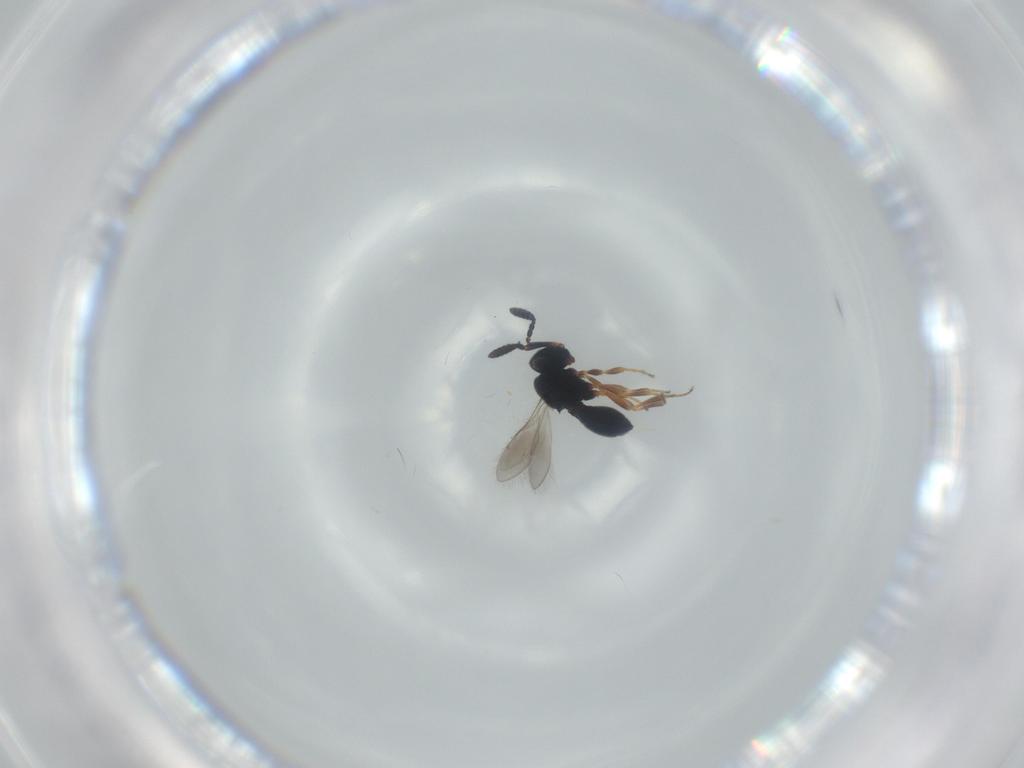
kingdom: Animalia
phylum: Arthropoda
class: Insecta
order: Hymenoptera
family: Scelionidae
